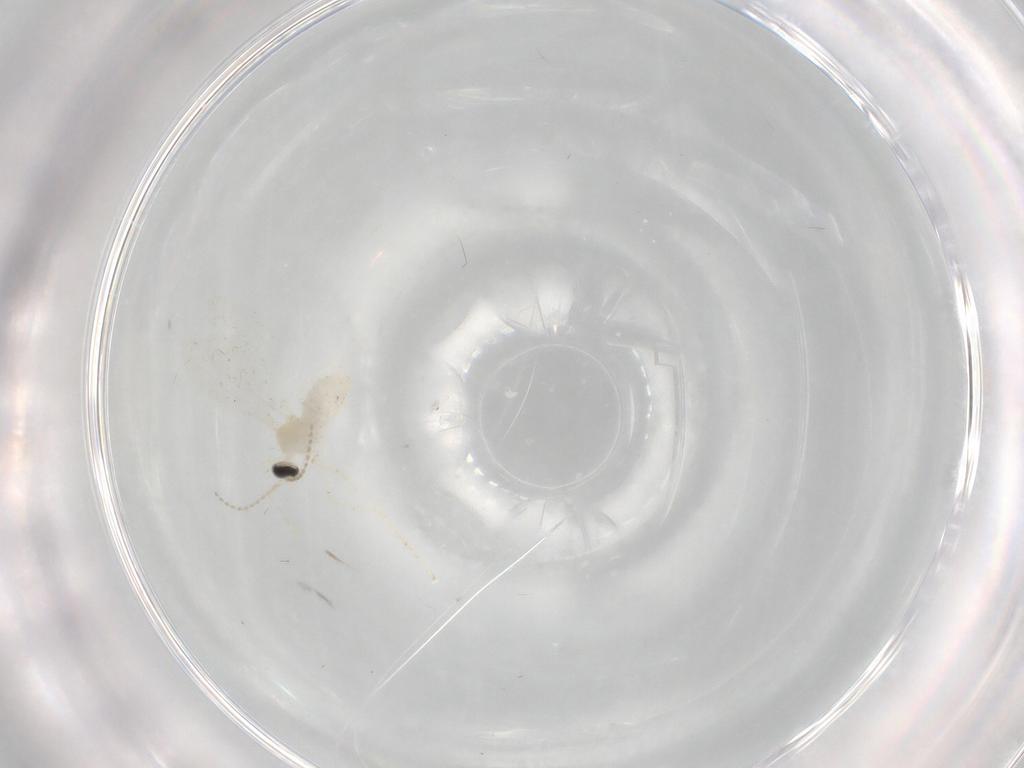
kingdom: Animalia
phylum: Arthropoda
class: Insecta
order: Diptera
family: Cecidomyiidae
